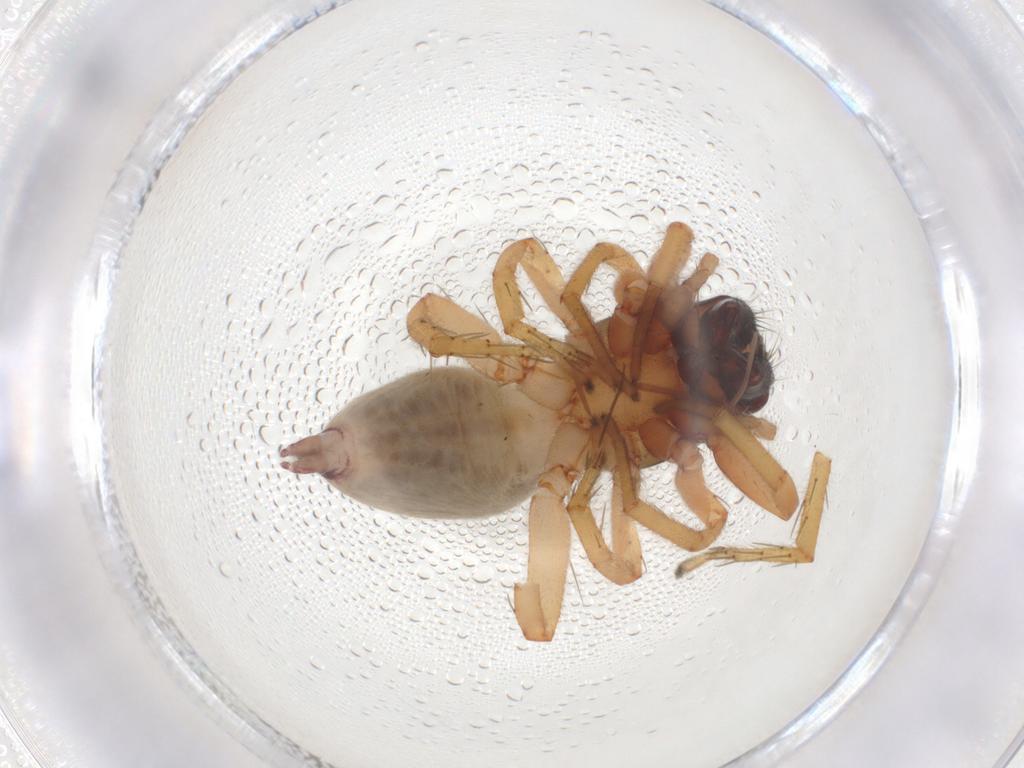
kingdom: Animalia
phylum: Arthropoda
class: Arachnida
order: Araneae
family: Clubionidae
